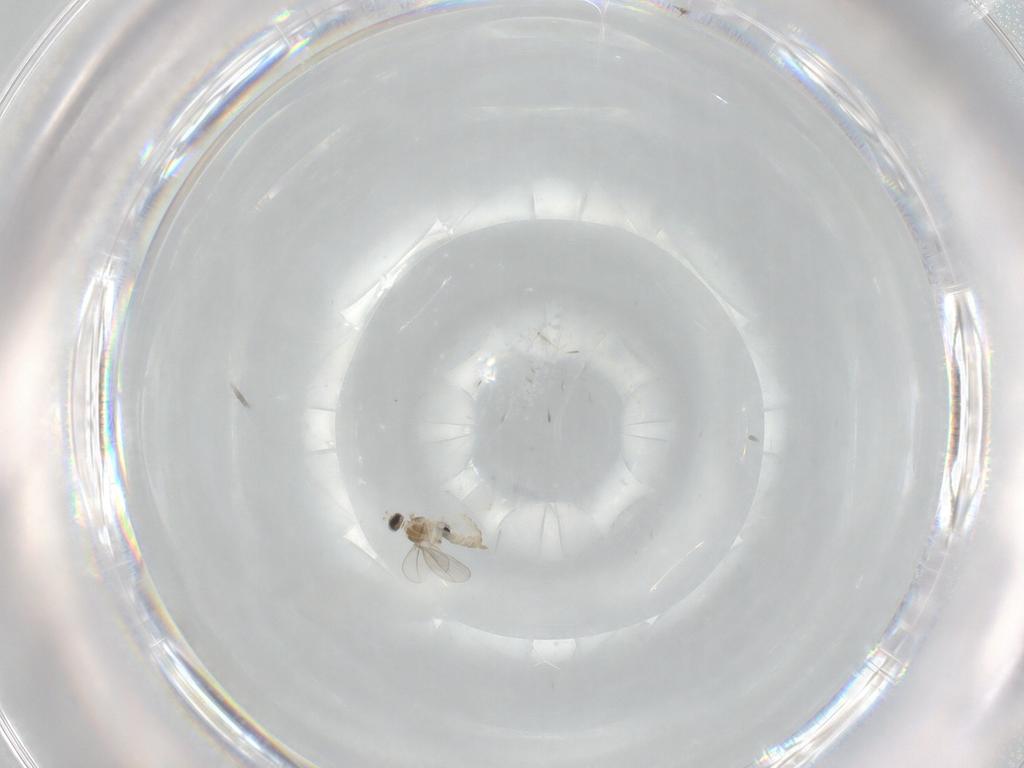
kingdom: Animalia
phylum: Arthropoda
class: Insecta
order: Diptera
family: Cecidomyiidae
